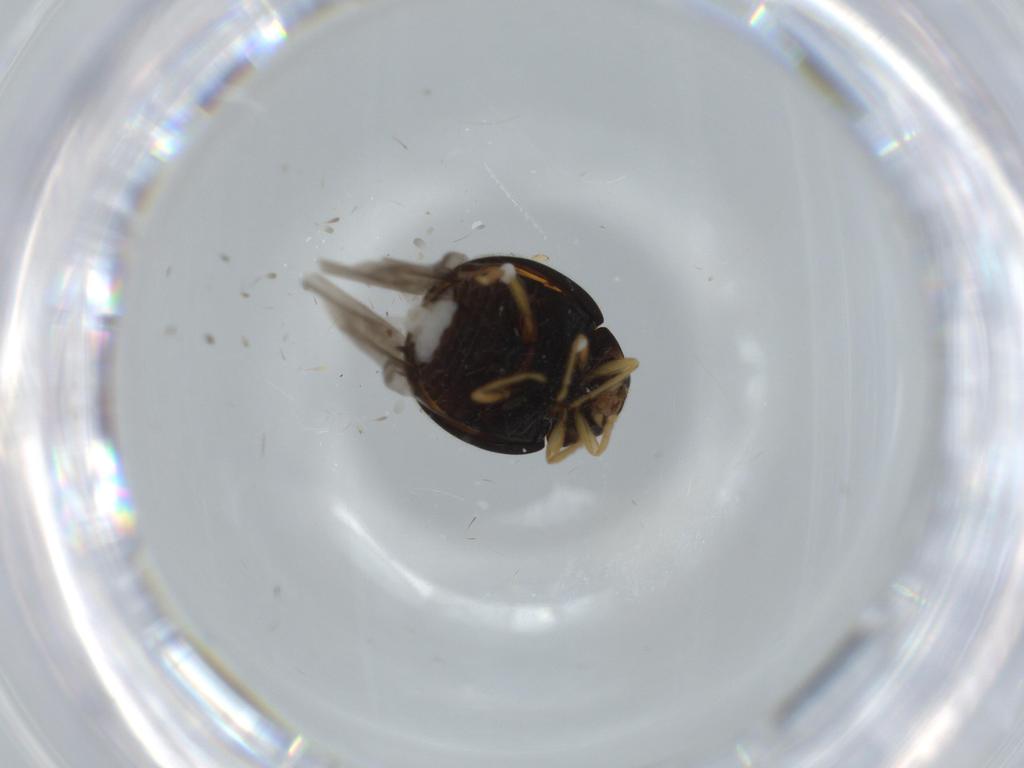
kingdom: Animalia
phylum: Arthropoda
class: Insecta
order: Coleoptera
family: Coccinellidae
